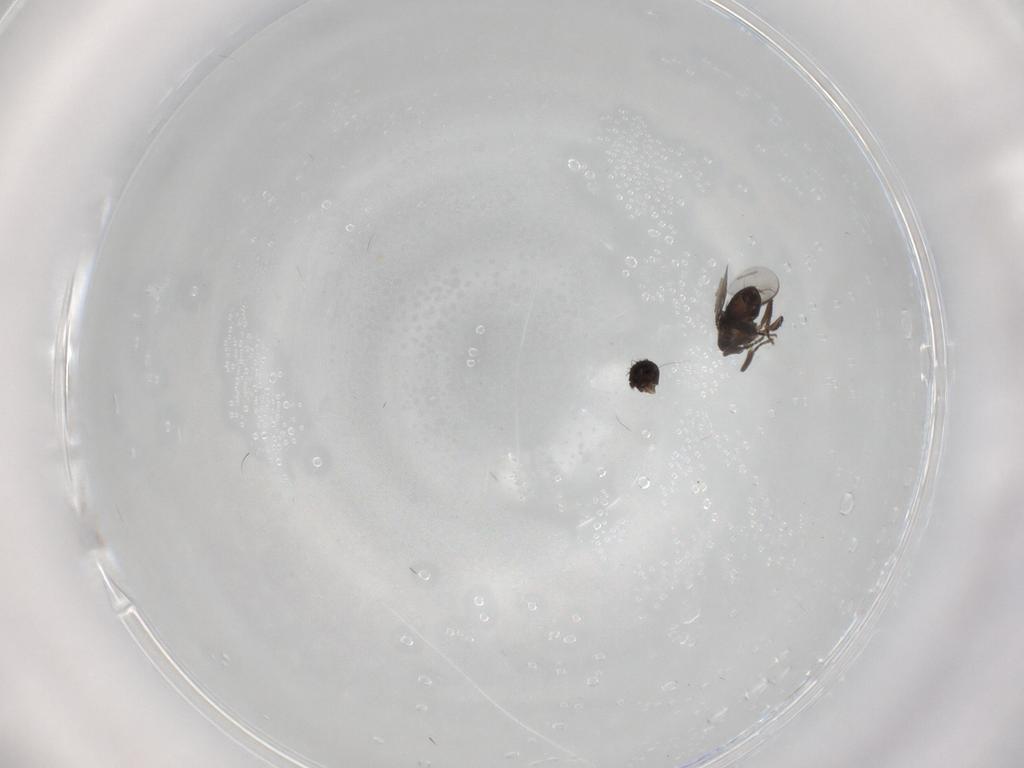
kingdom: Animalia
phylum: Arthropoda
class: Insecta
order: Diptera
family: Psychodidae
